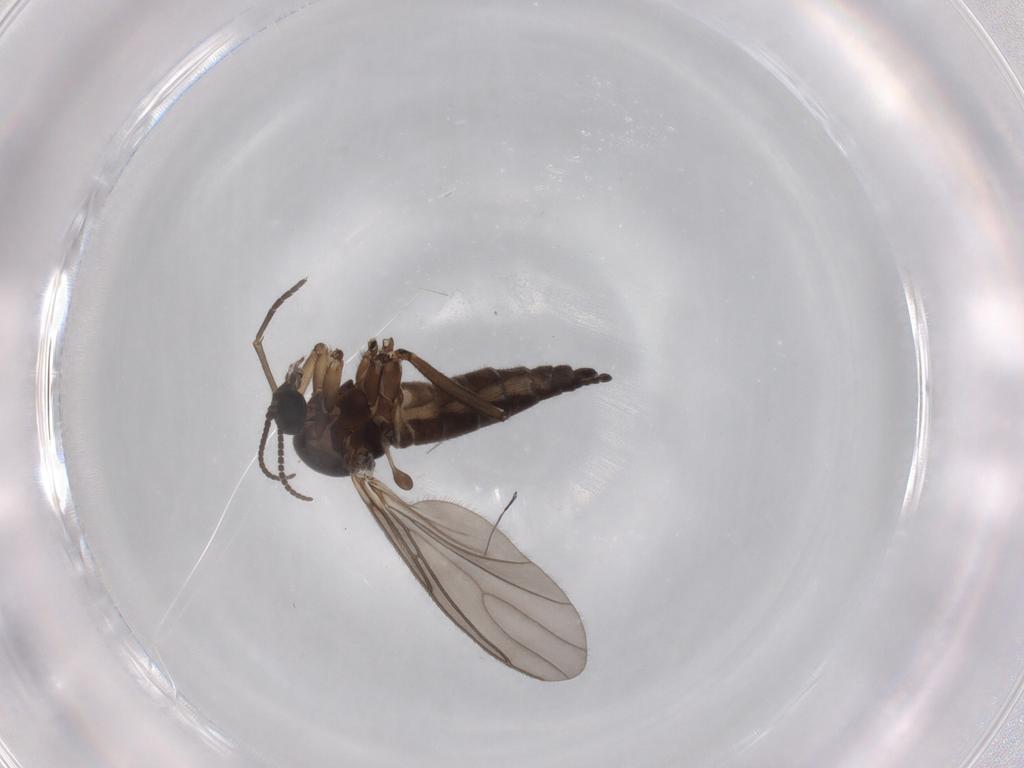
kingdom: Animalia
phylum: Arthropoda
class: Insecta
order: Diptera
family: Sciaridae
